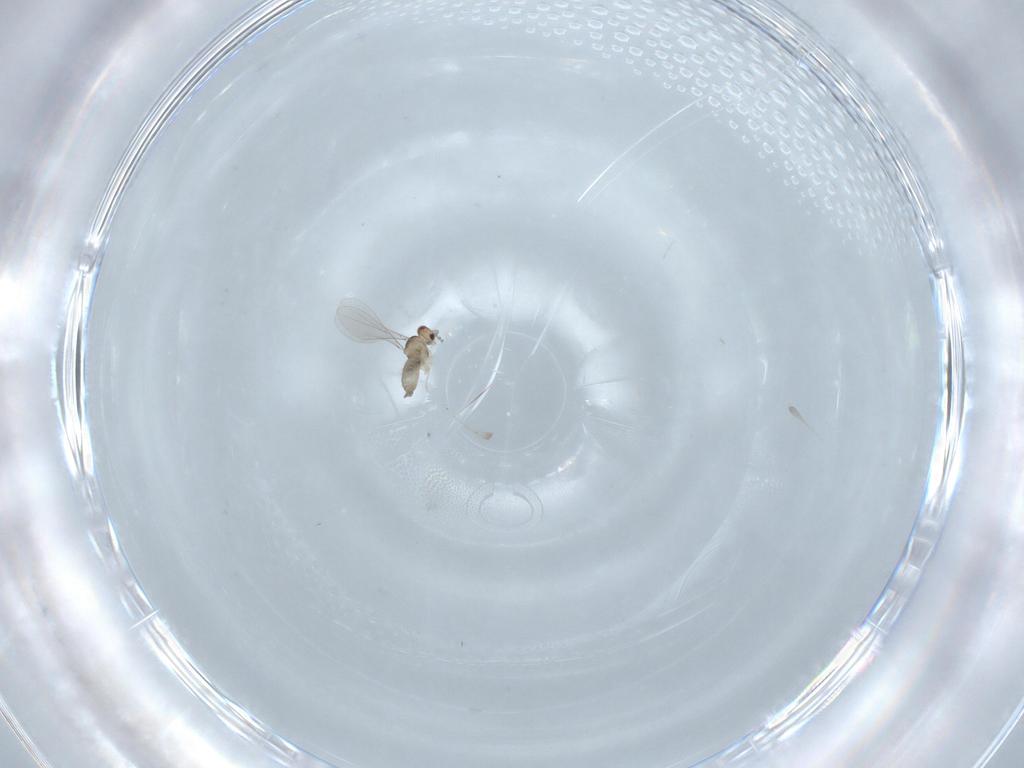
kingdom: Animalia
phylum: Arthropoda
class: Insecta
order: Diptera
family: Cecidomyiidae
